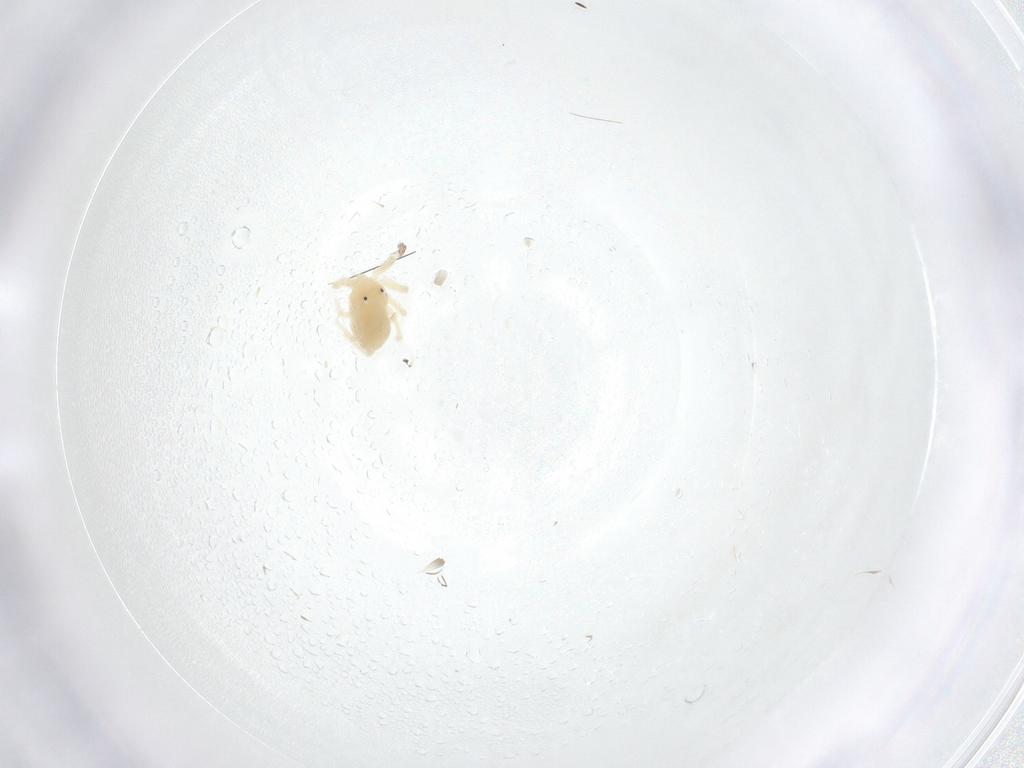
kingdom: Animalia
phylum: Arthropoda
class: Arachnida
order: Trombidiformes
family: Anystidae
